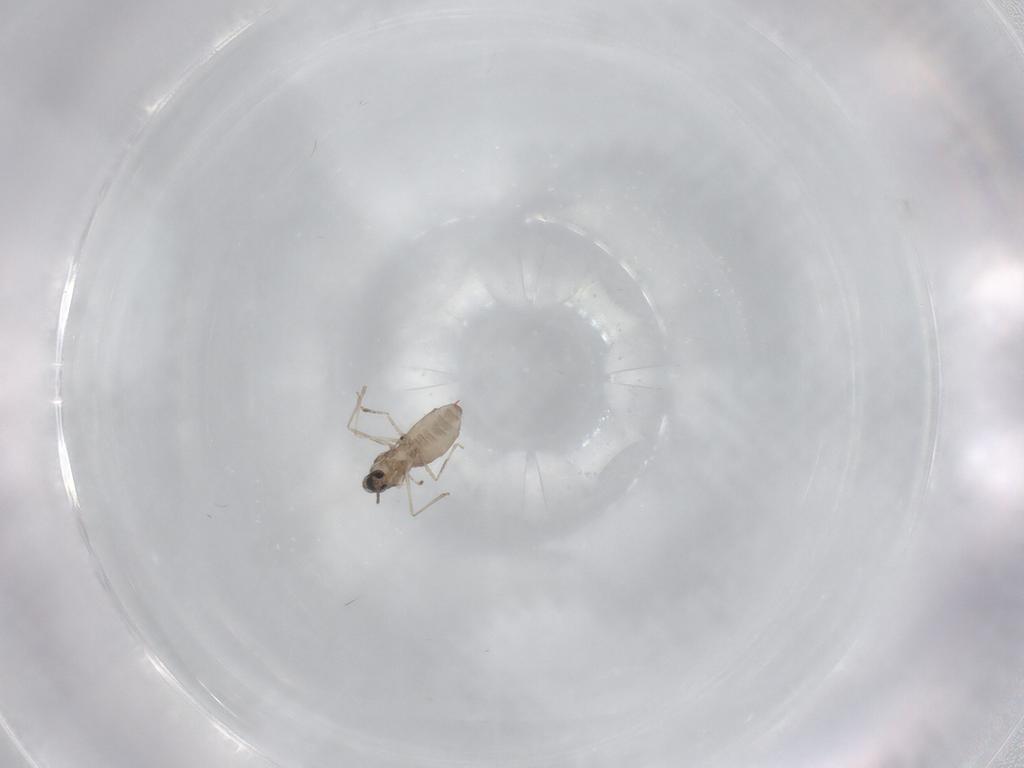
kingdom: Animalia
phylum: Arthropoda
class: Insecta
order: Diptera
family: Cecidomyiidae
